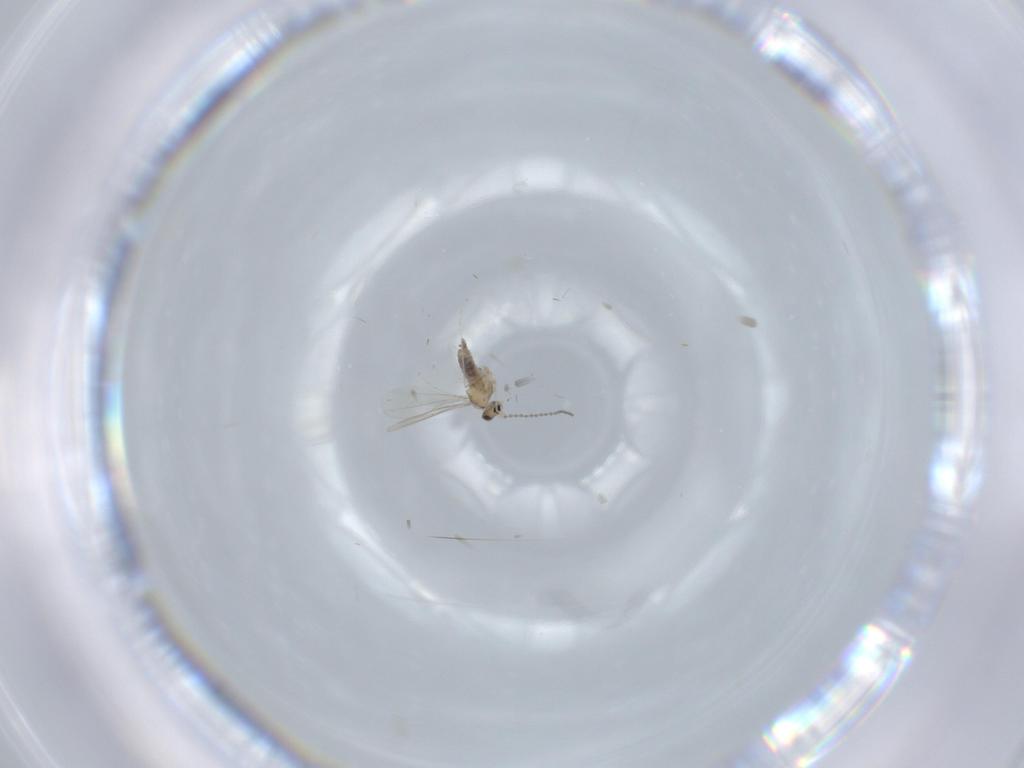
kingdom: Animalia
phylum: Arthropoda
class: Insecta
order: Diptera
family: Cecidomyiidae
